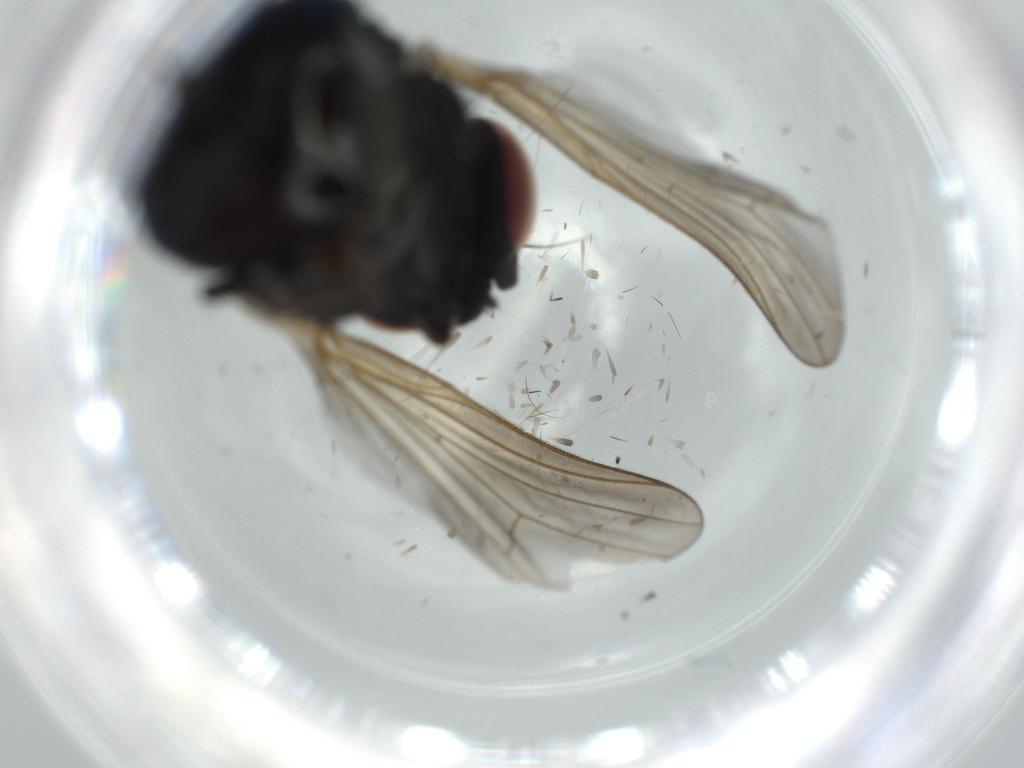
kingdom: Animalia
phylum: Arthropoda
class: Insecta
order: Diptera
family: Lonchaeidae
